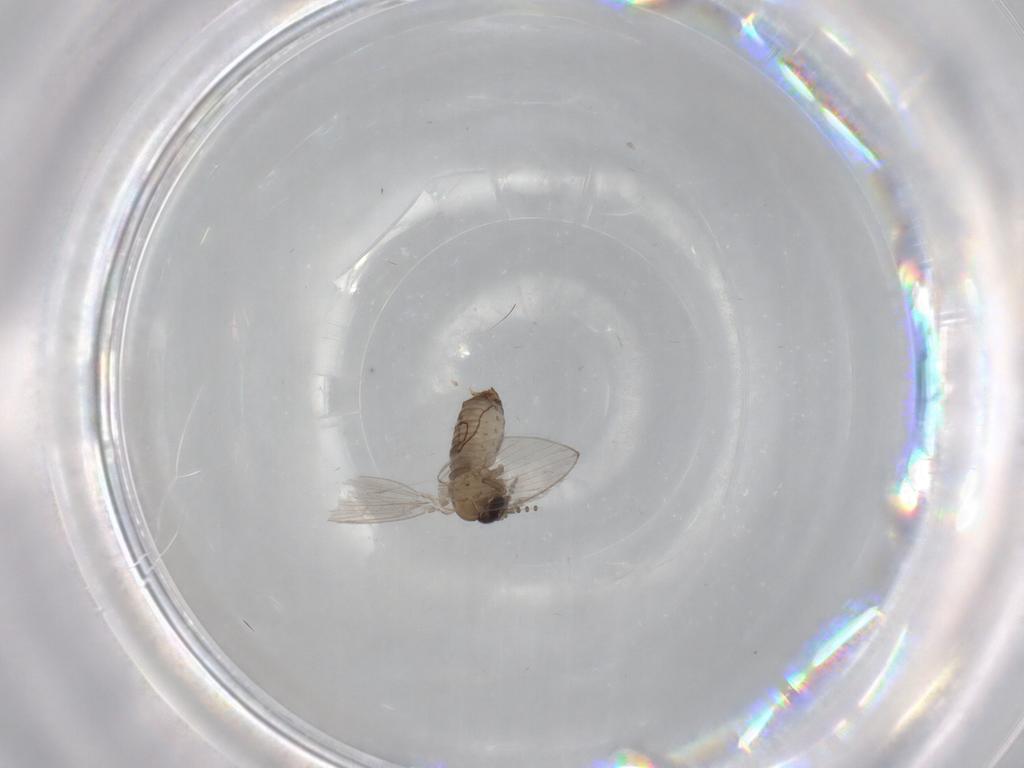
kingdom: Animalia
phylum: Arthropoda
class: Insecta
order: Diptera
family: Psychodidae
